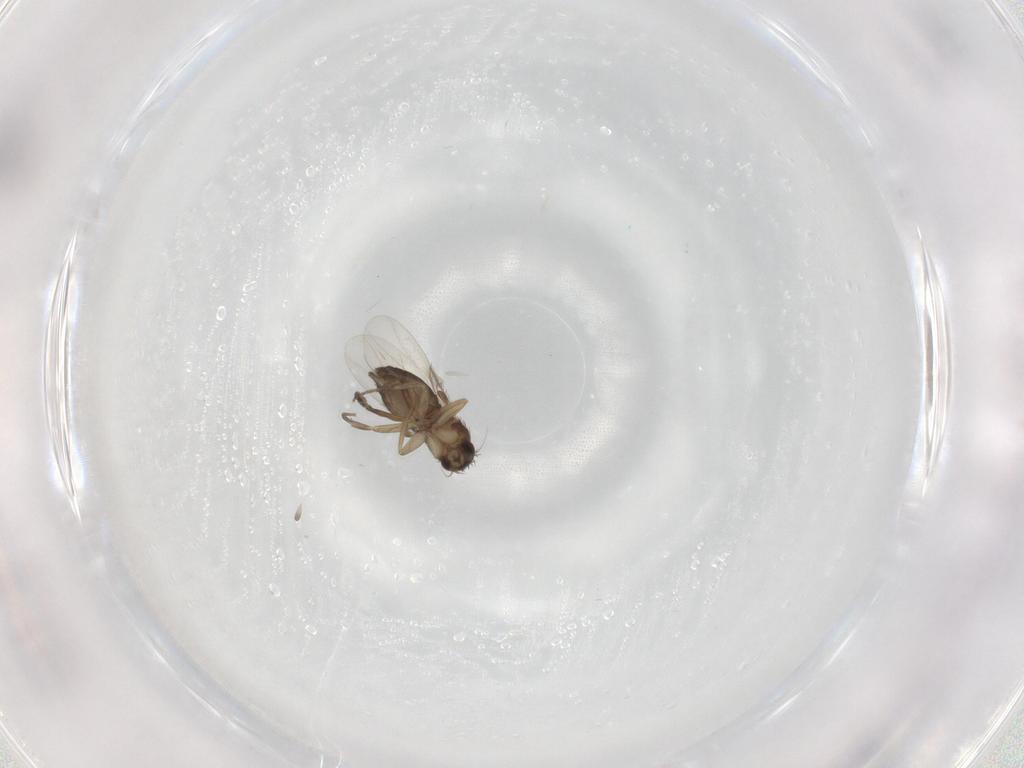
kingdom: Animalia
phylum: Arthropoda
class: Insecta
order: Diptera
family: Phoridae
